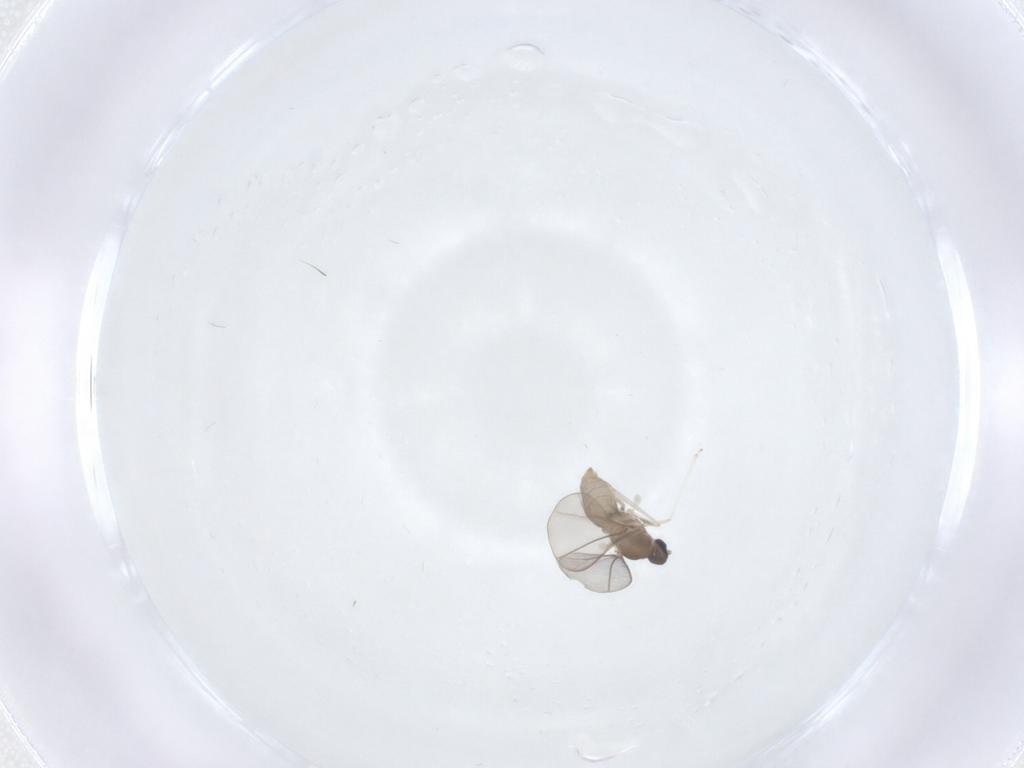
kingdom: Animalia
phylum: Arthropoda
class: Insecta
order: Diptera
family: Cecidomyiidae
